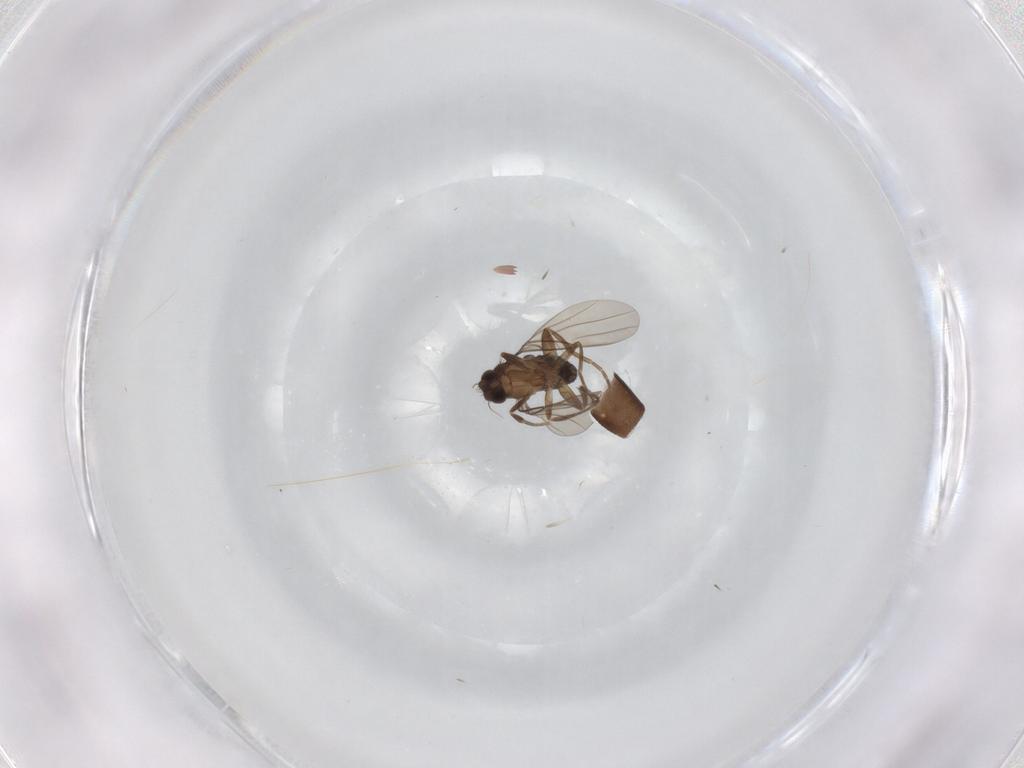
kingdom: Animalia
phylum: Arthropoda
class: Insecta
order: Diptera
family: Phoridae
